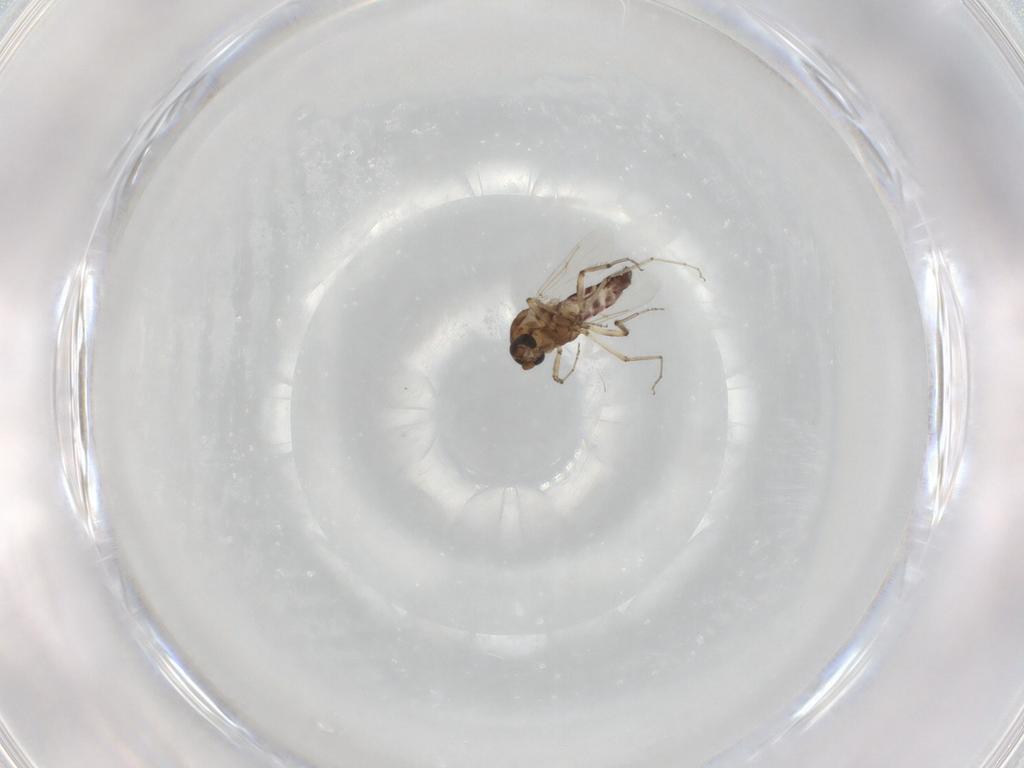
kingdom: Animalia
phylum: Arthropoda
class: Insecta
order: Diptera
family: Ceratopogonidae
